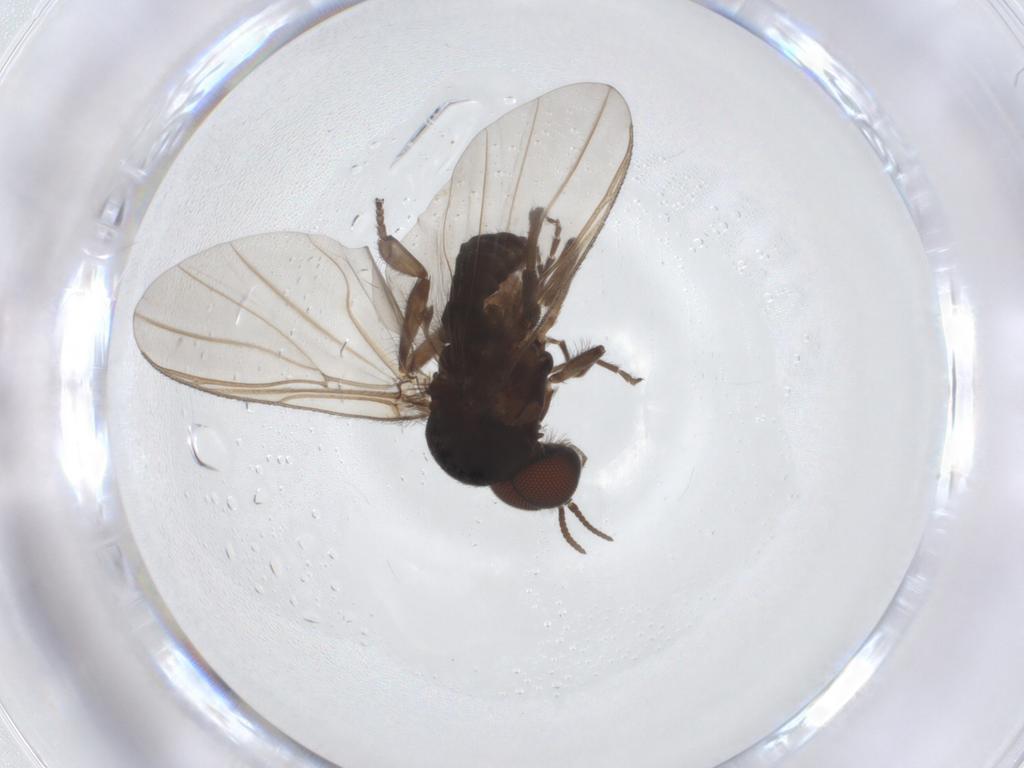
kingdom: Animalia
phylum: Arthropoda
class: Insecta
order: Diptera
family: Simuliidae
